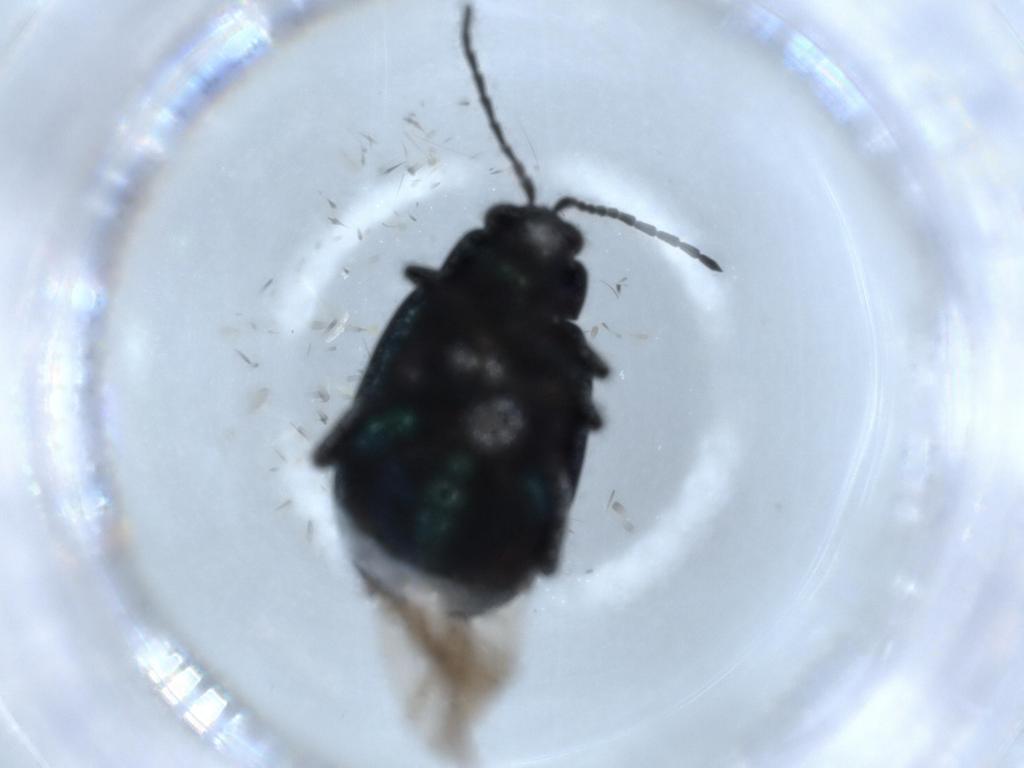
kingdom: Animalia
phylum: Arthropoda
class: Insecta
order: Coleoptera
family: Chrysomelidae
